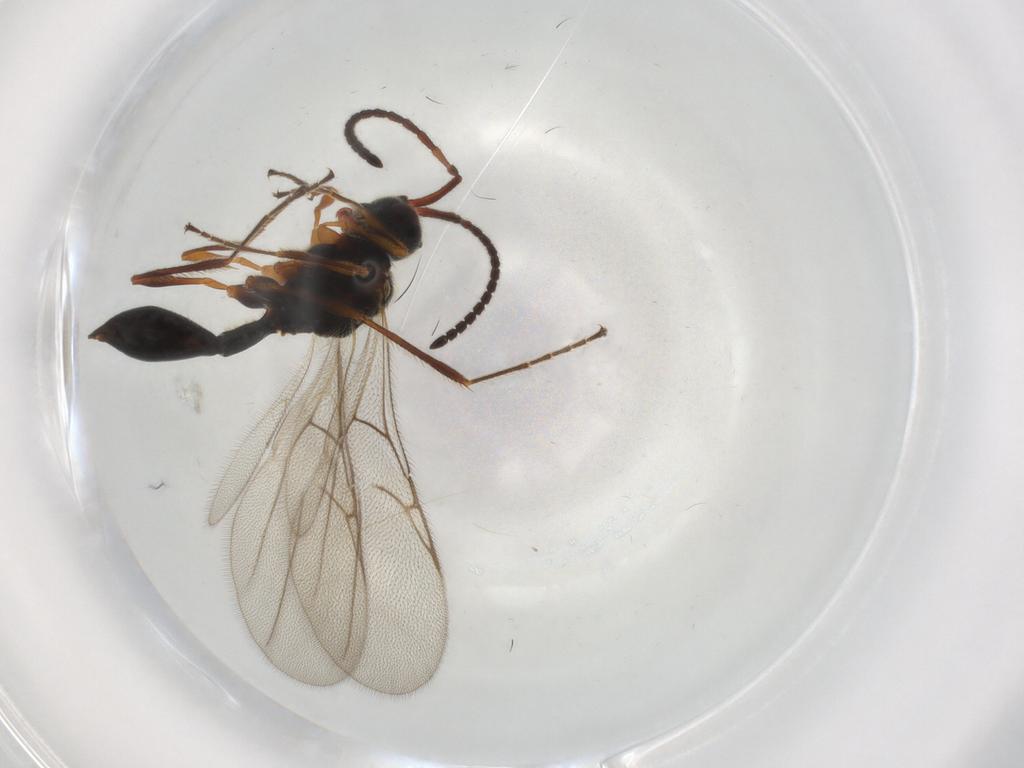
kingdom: Animalia
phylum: Arthropoda
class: Insecta
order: Hymenoptera
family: Diapriidae
